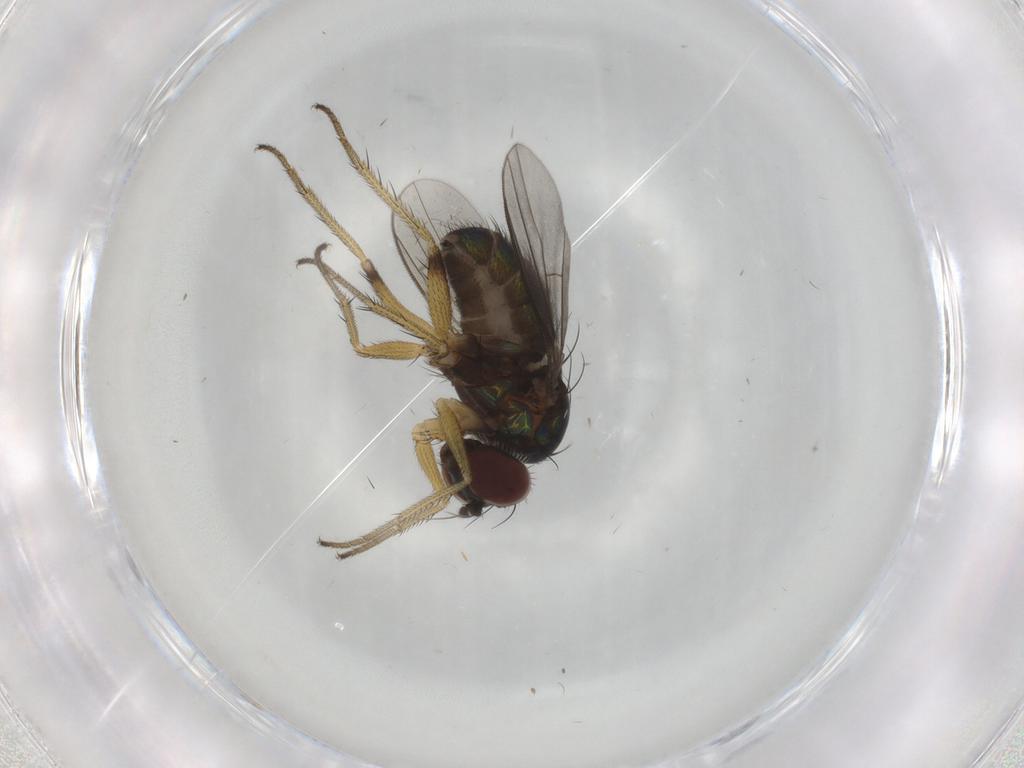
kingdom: Animalia
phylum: Arthropoda
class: Insecta
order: Diptera
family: Dolichopodidae
